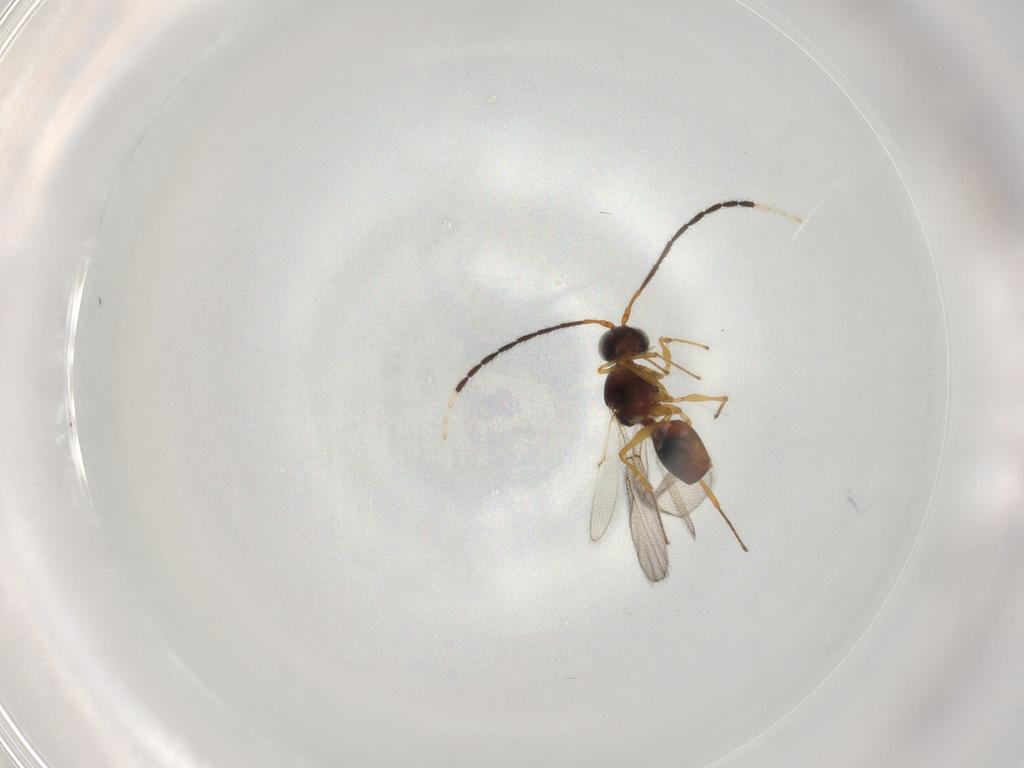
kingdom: Animalia
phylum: Arthropoda
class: Insecta
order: Hymenoptera
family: Figitidae
